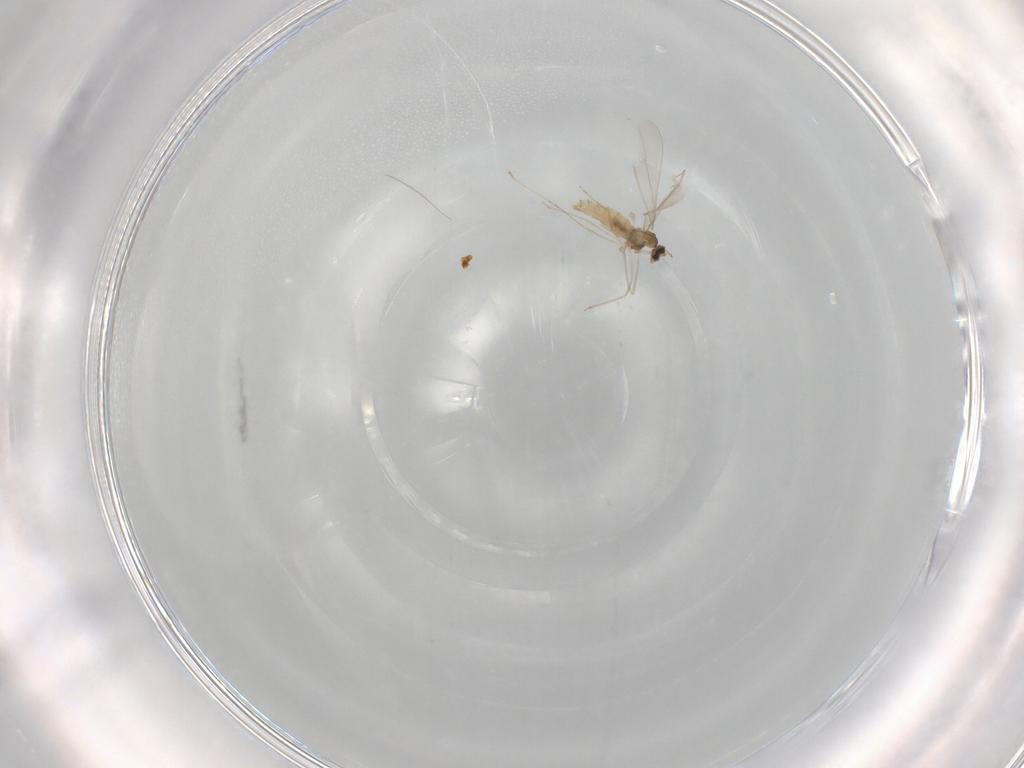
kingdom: Animalia
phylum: Arthropoda
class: Insecta
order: Diptera
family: Cecidomyiidae
